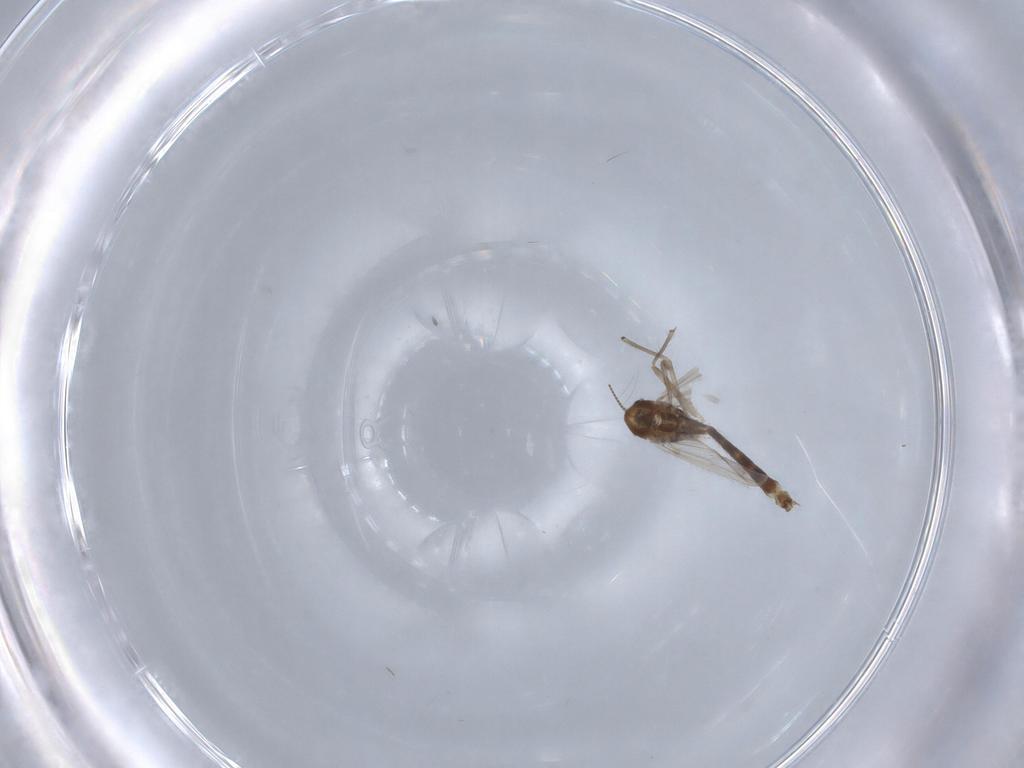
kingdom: Animalia
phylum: Arthropoda
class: Insecta
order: Diptera
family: Chironomidae
